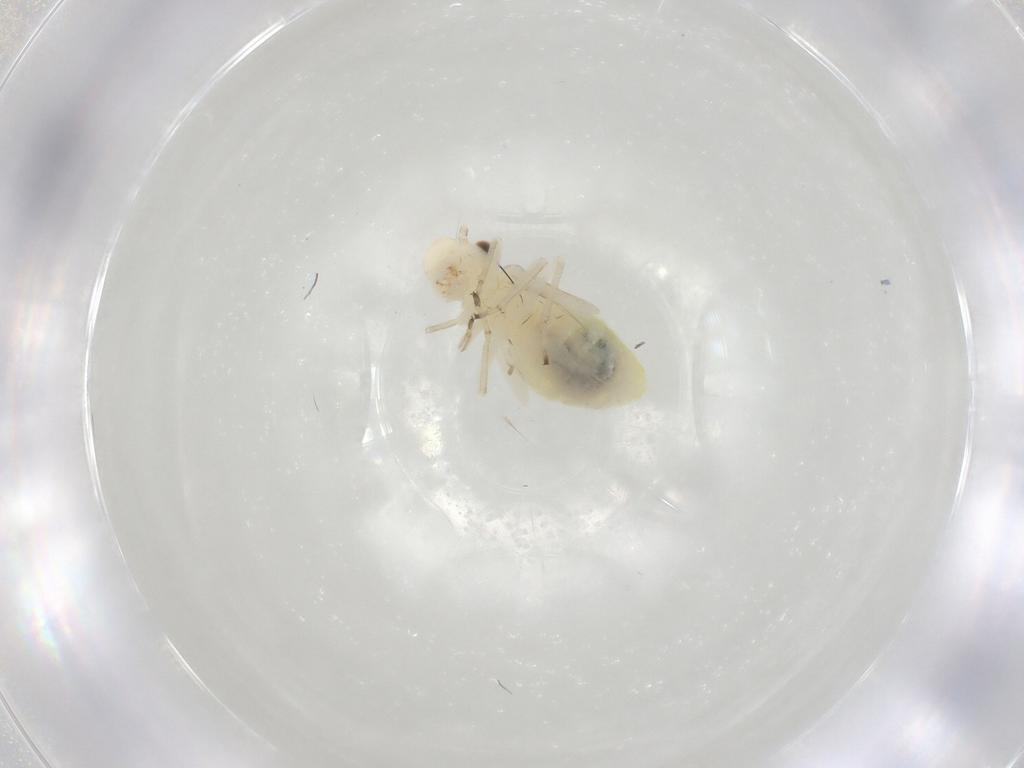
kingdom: Animalia
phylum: Arthropoda
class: Insecta
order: Psocodea
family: Caeciliusidae
